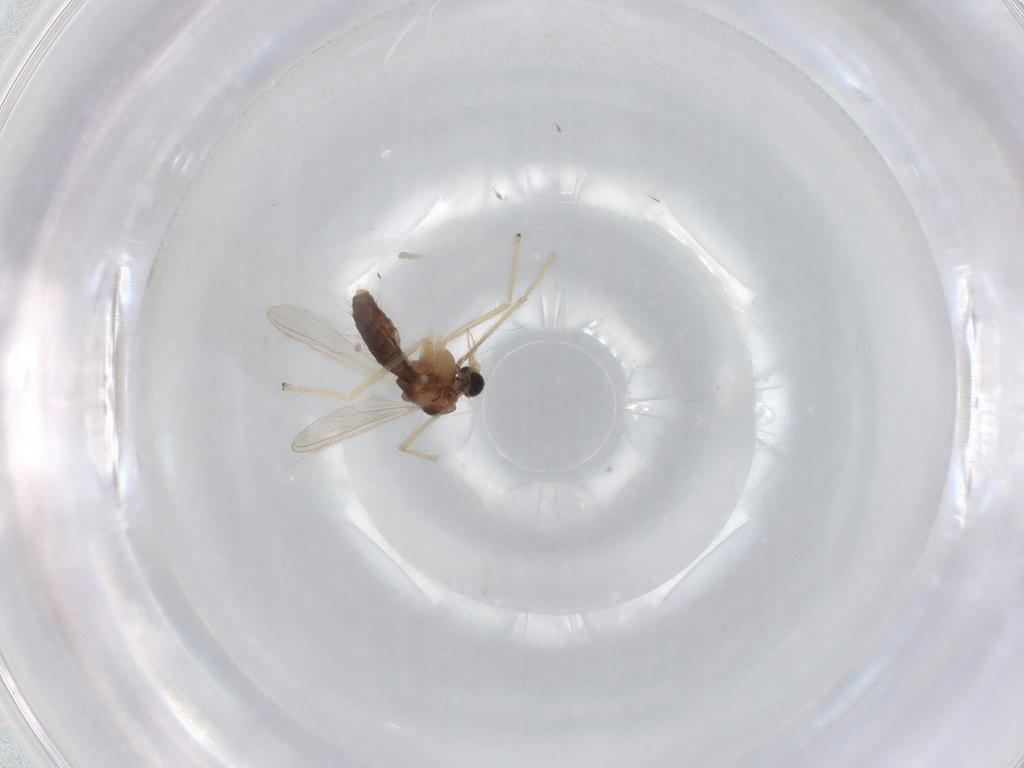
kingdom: Animalia
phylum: Arthropoda
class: Insecta
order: Diptera
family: Chironomidae
